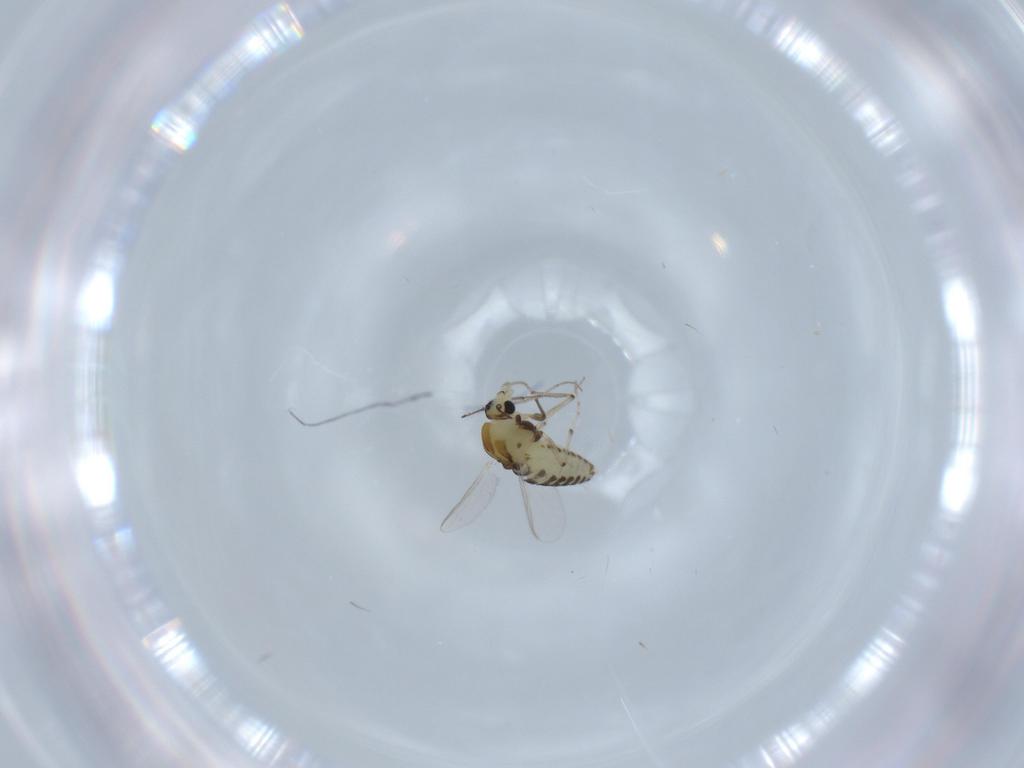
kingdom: Animalia
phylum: Arthropoda
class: Insecta
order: Diptera
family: Chironomidae
